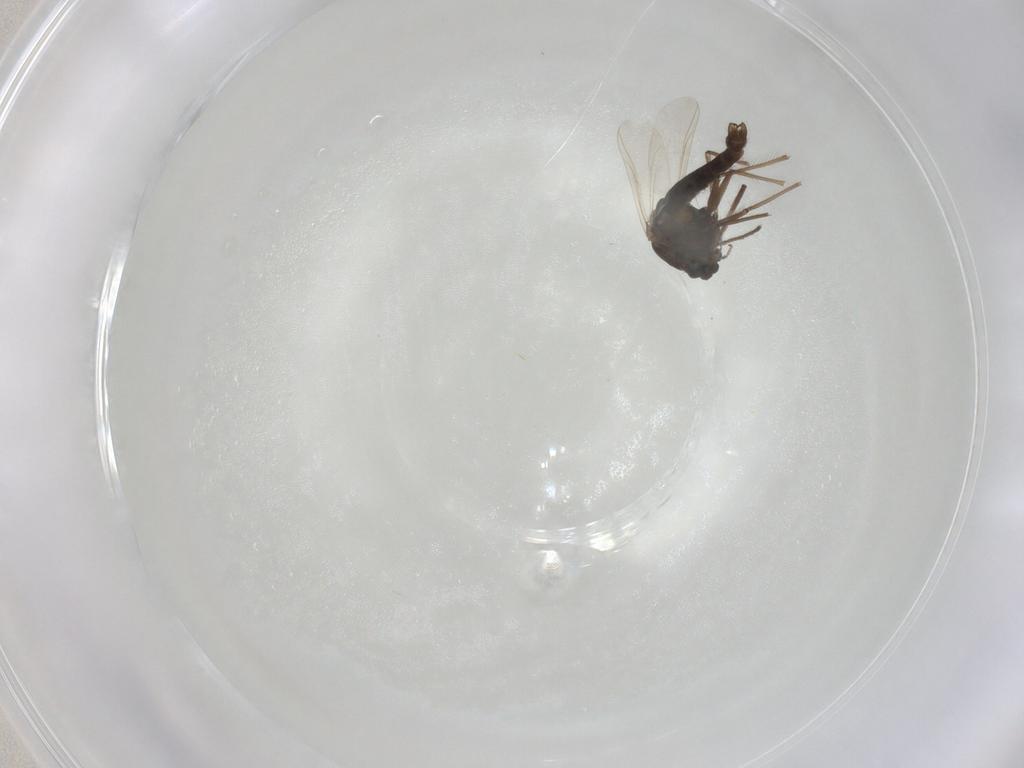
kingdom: Animalia
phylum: Arthropoda
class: Insecta
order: Diptera
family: Chironomidae
